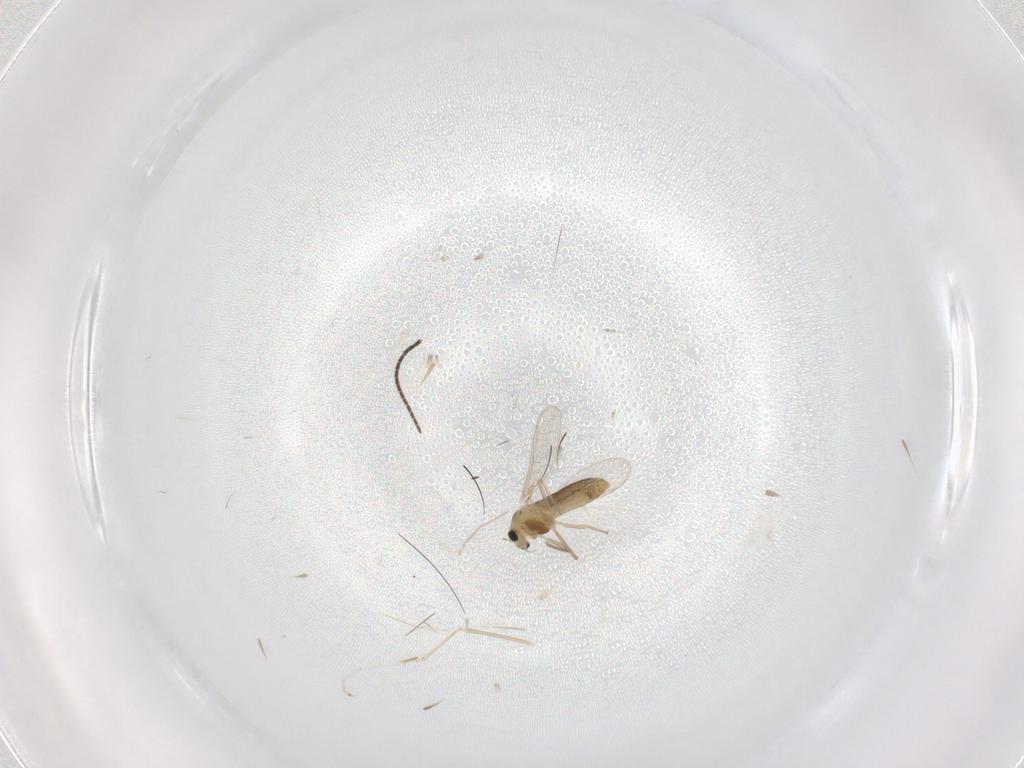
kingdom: Animalia
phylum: Arthropoda
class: Insecta
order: Diptera
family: Chironomidae
